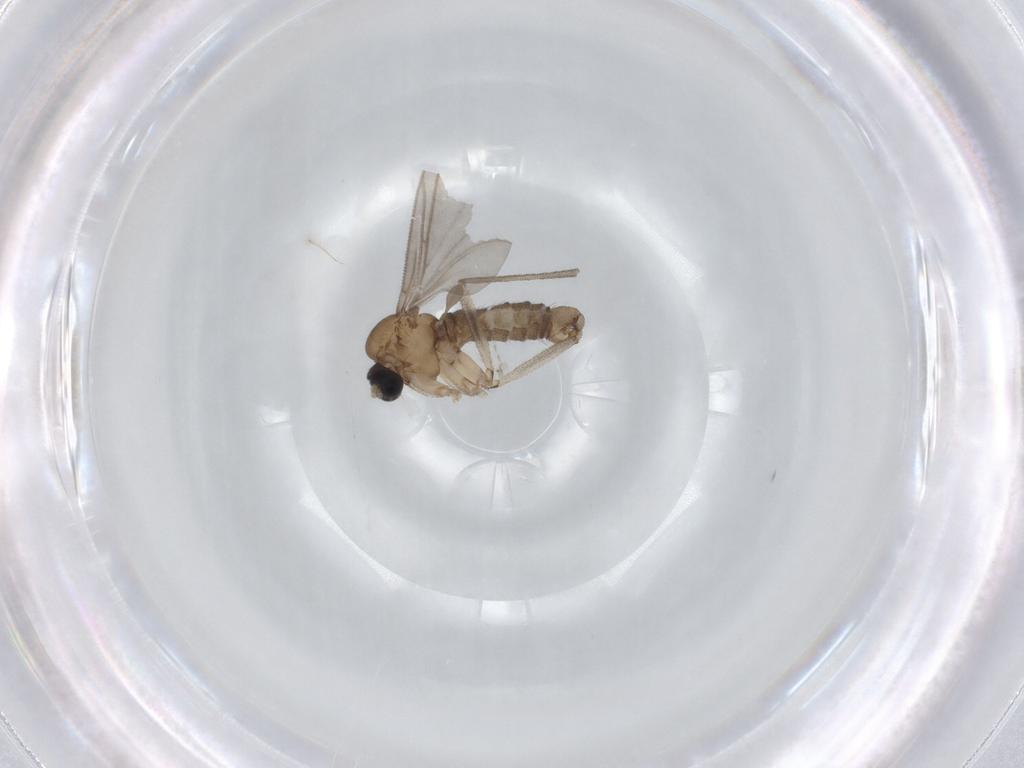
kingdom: Animalia
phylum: Arthropoda
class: Insecta
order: Diptera
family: Sciaridae
